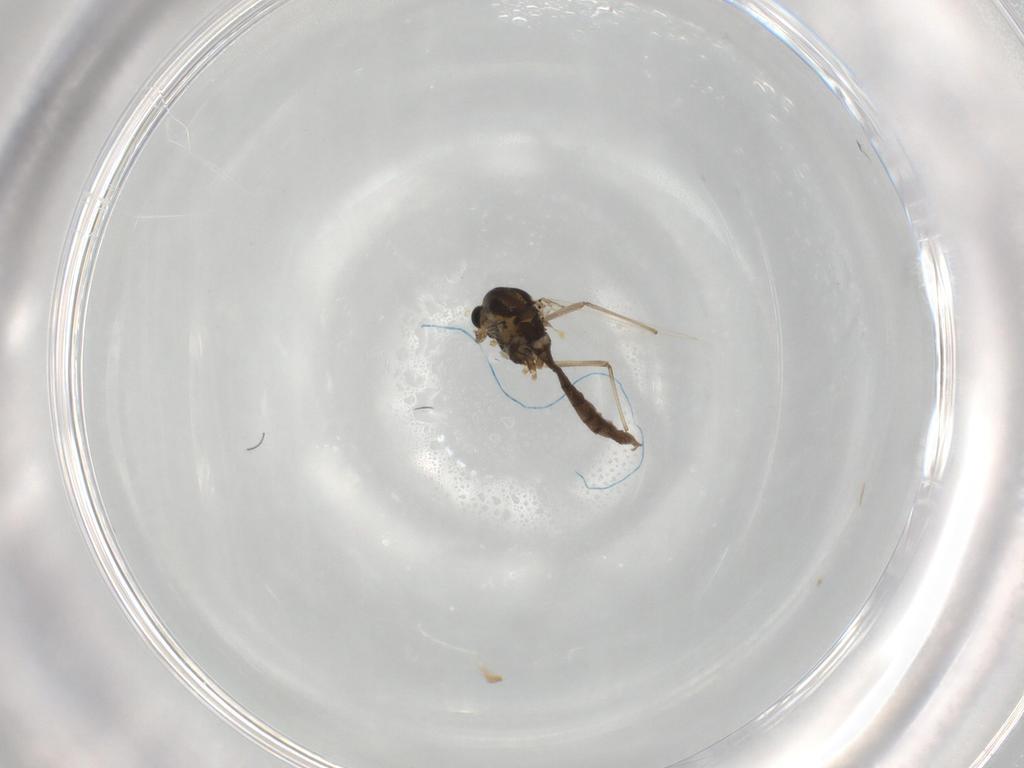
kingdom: Animalia
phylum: Arthropoda
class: Insecta
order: Diptera
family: Chironomidae
